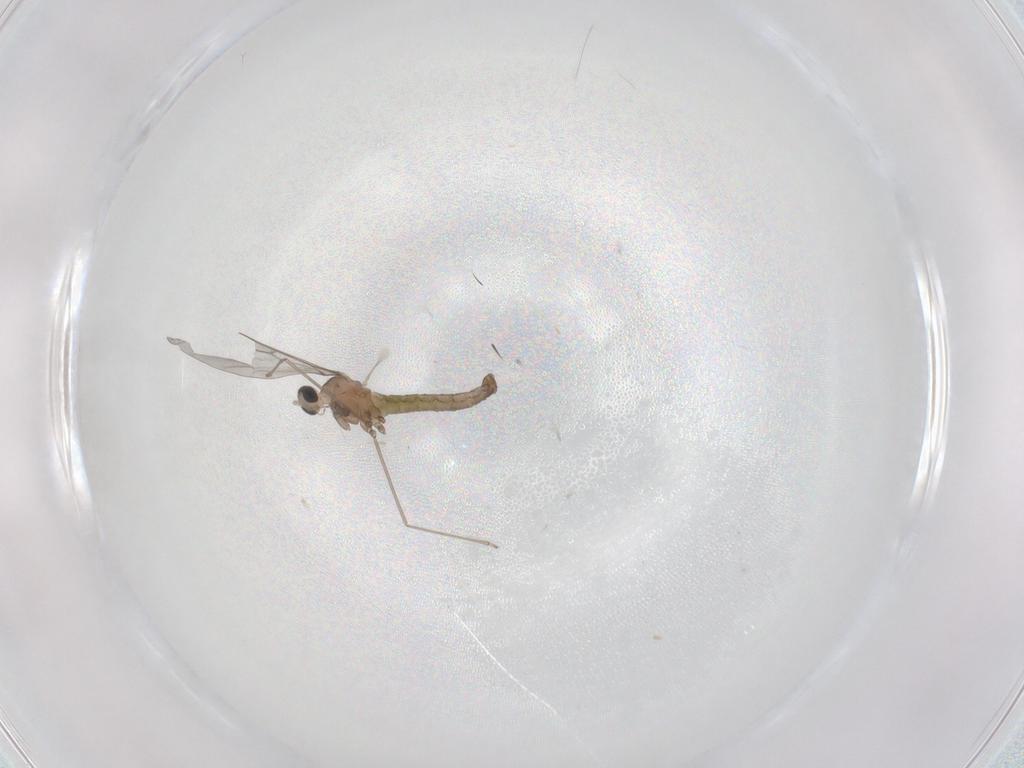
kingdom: Animalia
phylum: Arthropoda
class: Insecta
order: Diptera
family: Cecidomyiidae
